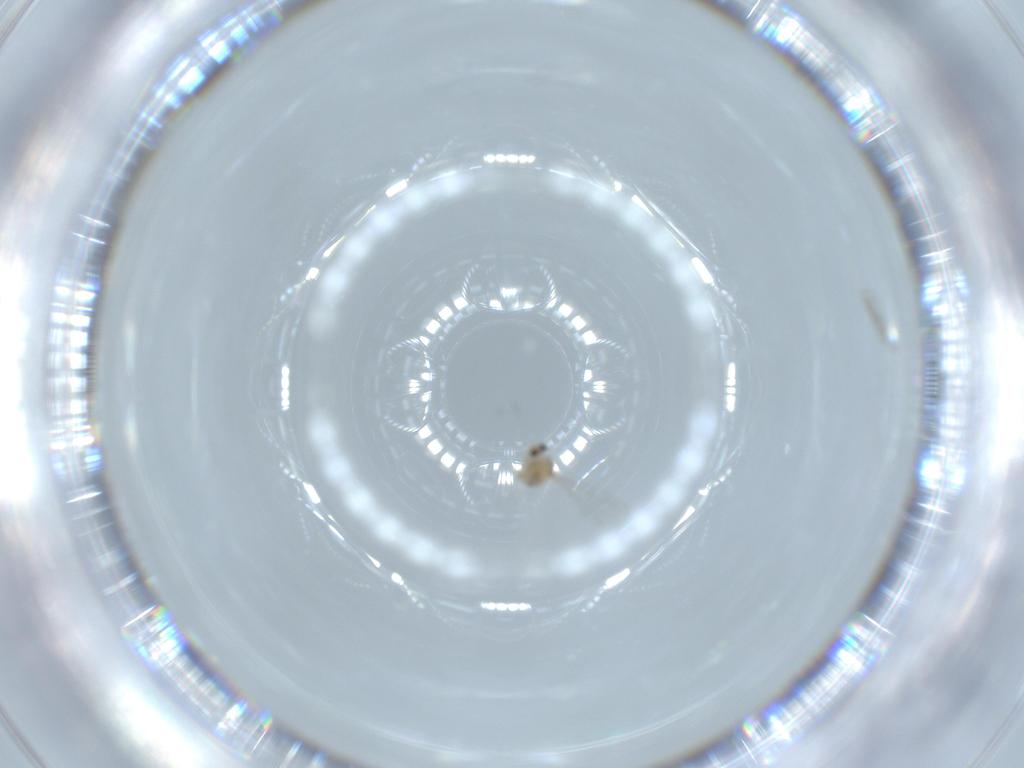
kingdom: Animalia
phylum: Arthropoda
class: Insecta
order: Diptera
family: Cecidomyiidae
